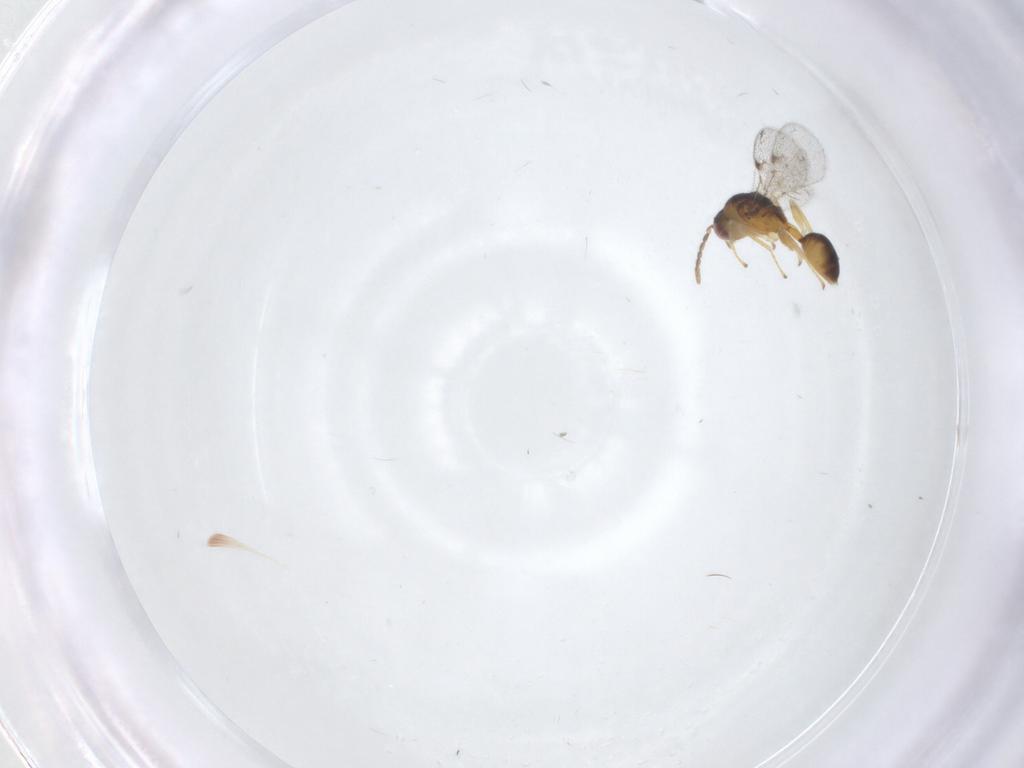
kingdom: Animalia
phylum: Arthropoda
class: Insecta
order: Hymenoptera
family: Eurytomidae
